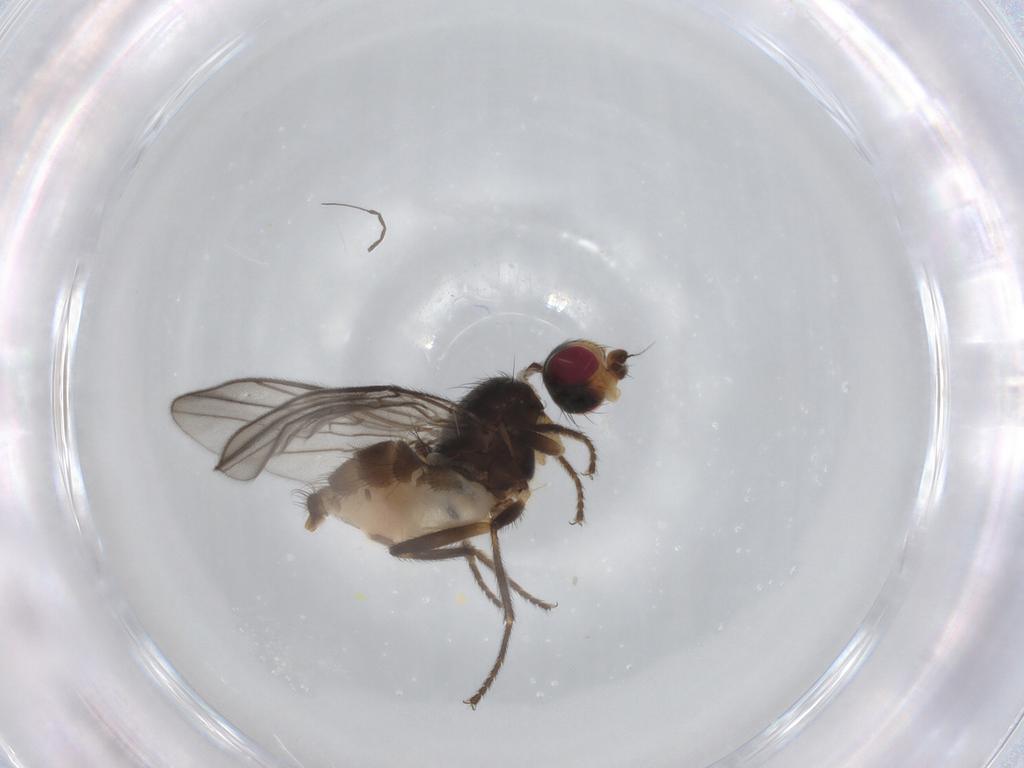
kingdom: Animalia
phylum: Arthropoda
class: Insecta
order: Diptera
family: Chloropidae
